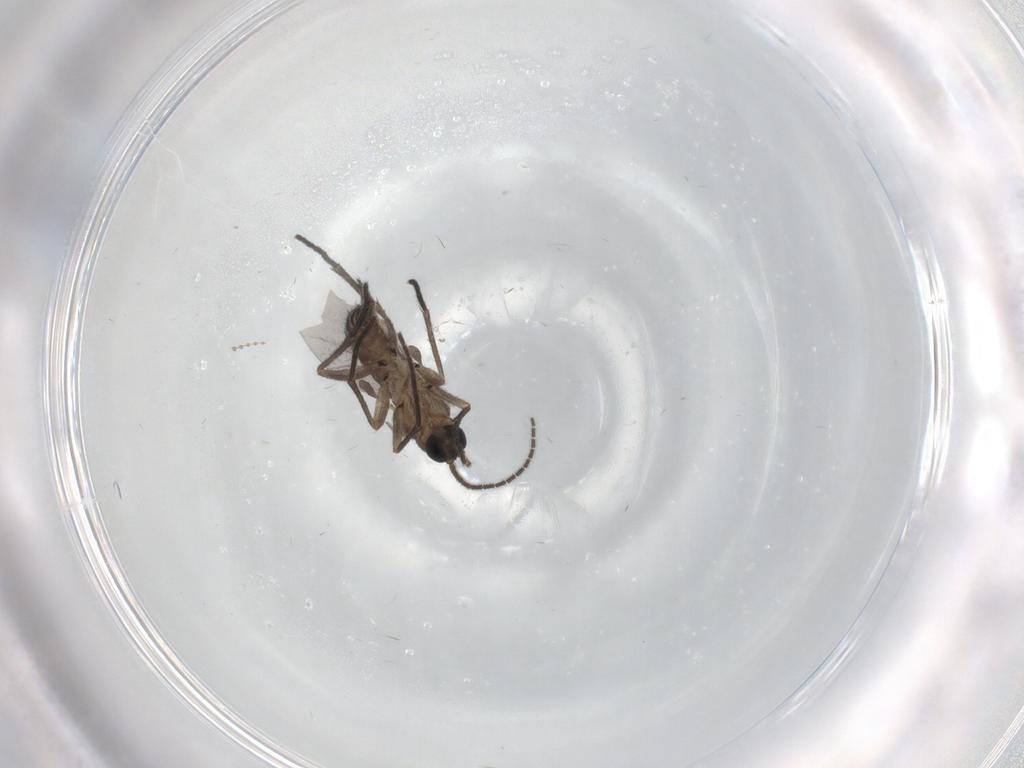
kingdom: Animalia
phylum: Arthropoda
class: Insecta
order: Diptera
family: Sciaridae
